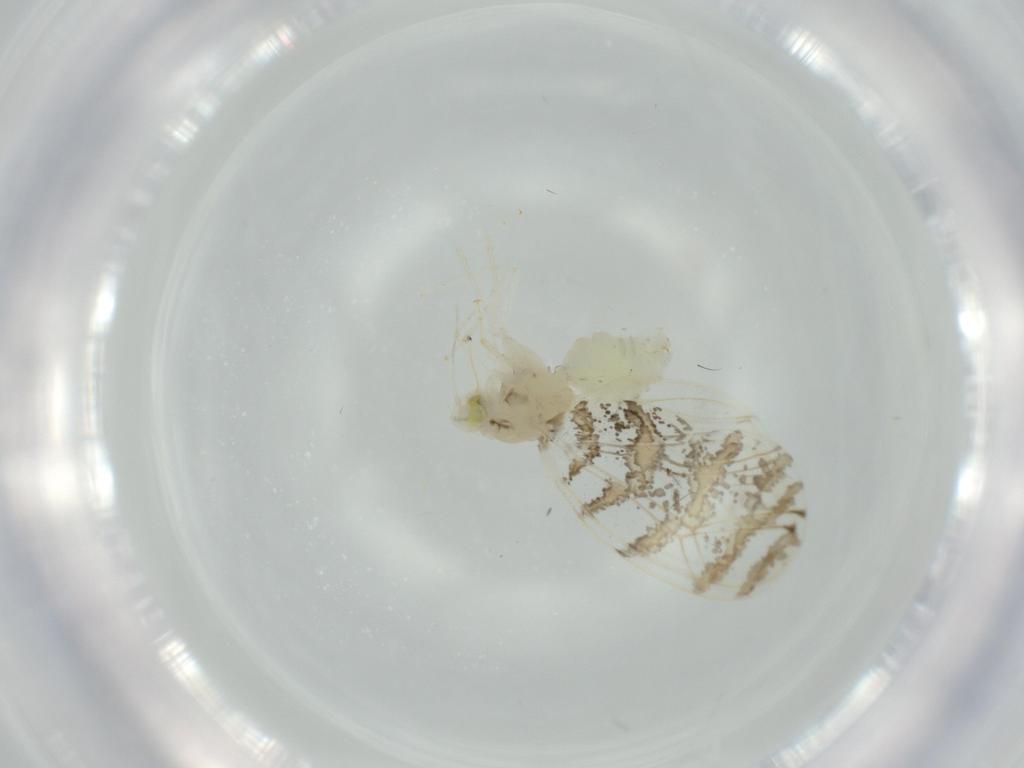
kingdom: Animalia
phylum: Arthropoda
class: Insecta
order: Hemiptera
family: Aleyrodidae
